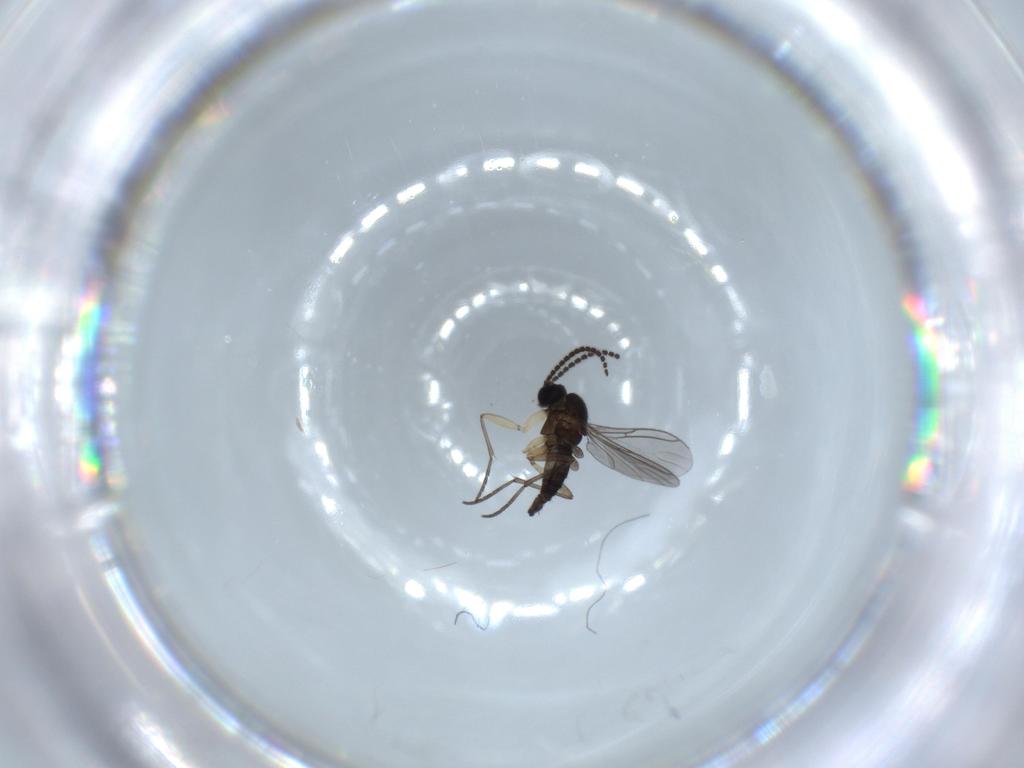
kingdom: Animalia
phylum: Arthropoda
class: Insecta
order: Diptera
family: Sciaridae
